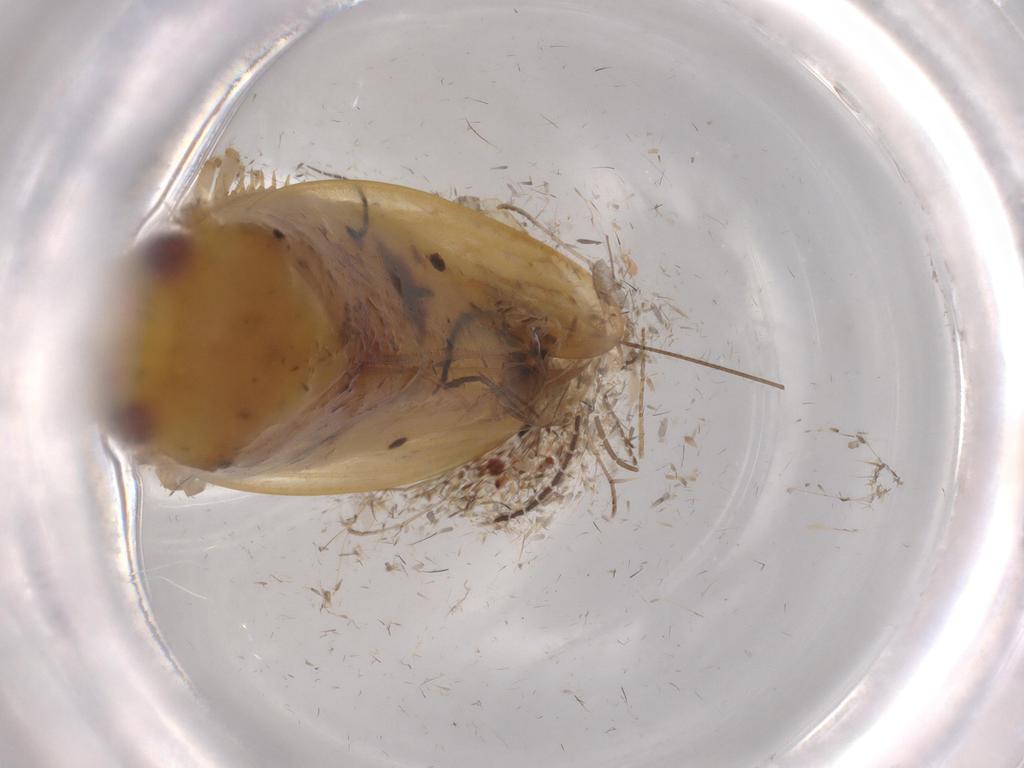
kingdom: Animalia
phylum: Arthropoda
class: Insecta
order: Hemiptera
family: Cicadellidae
